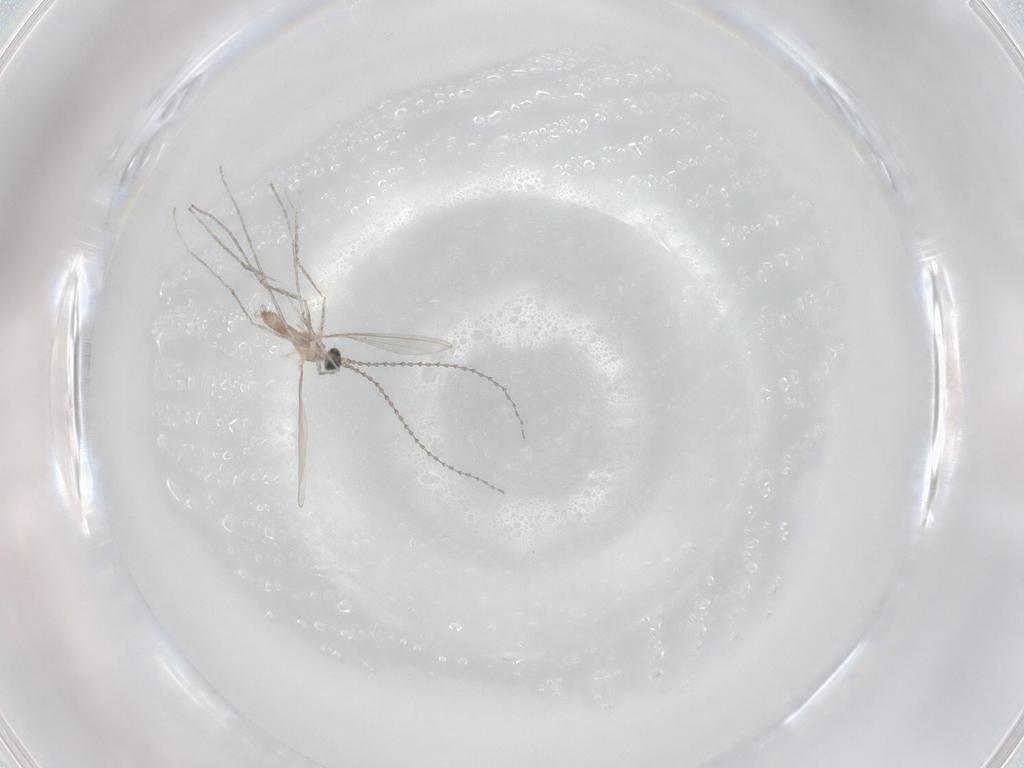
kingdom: Animalia
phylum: Arthropoda
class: Insecta
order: Diptera
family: Cecidomyiidae
